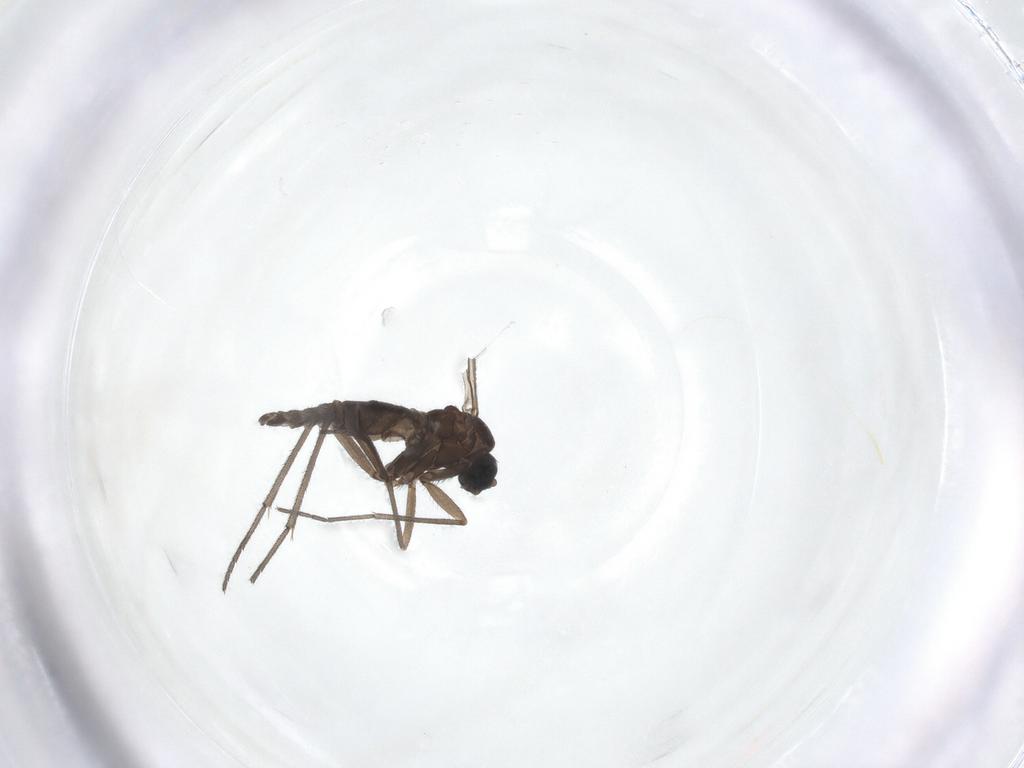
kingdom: Animalia
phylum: Arthropoda
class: Insecta
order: Diptera
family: Sciaridae
